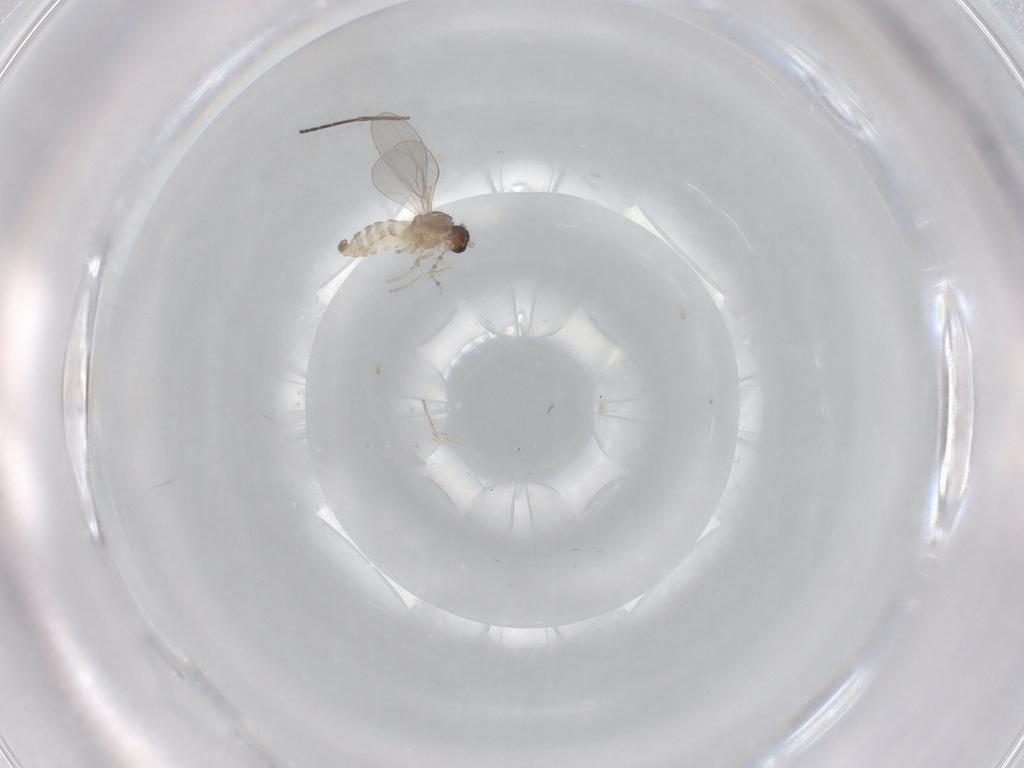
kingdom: Animalia
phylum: Arthropoda
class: Insecta
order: Diptera
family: Cecidomyiidae
